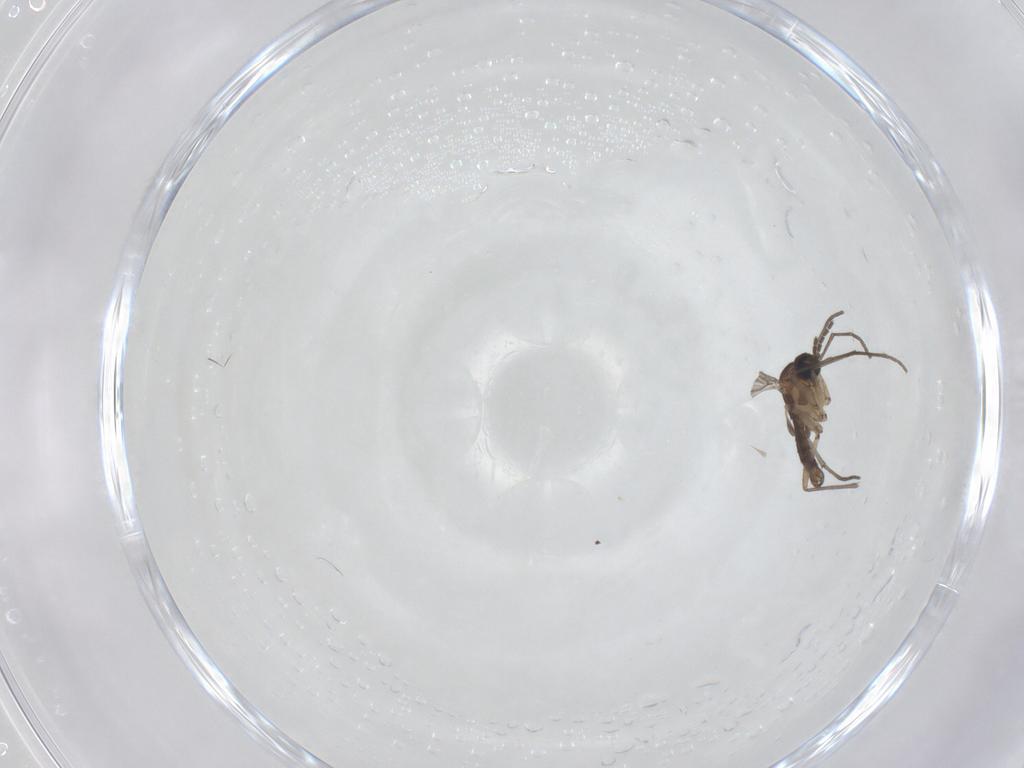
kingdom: Animalia
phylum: Arthropoda
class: Insecta
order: Diptera
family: Sciaridae
